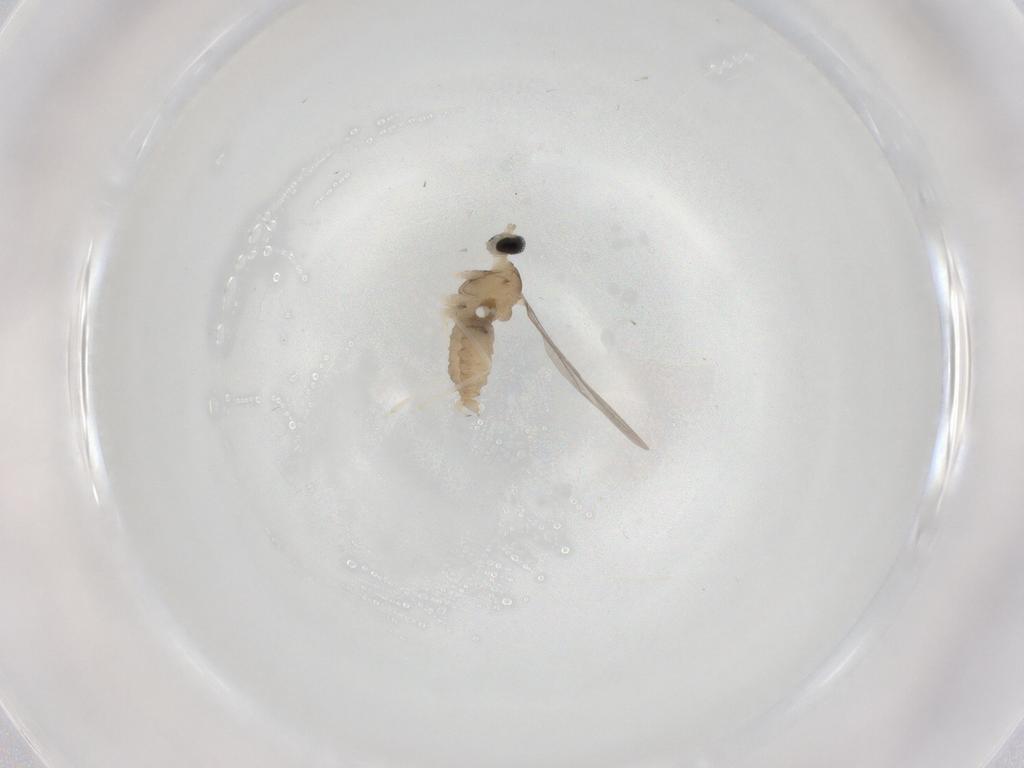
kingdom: Animalia
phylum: Arthropoda
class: Insecta
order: Diptera
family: Cecidomyiidae
